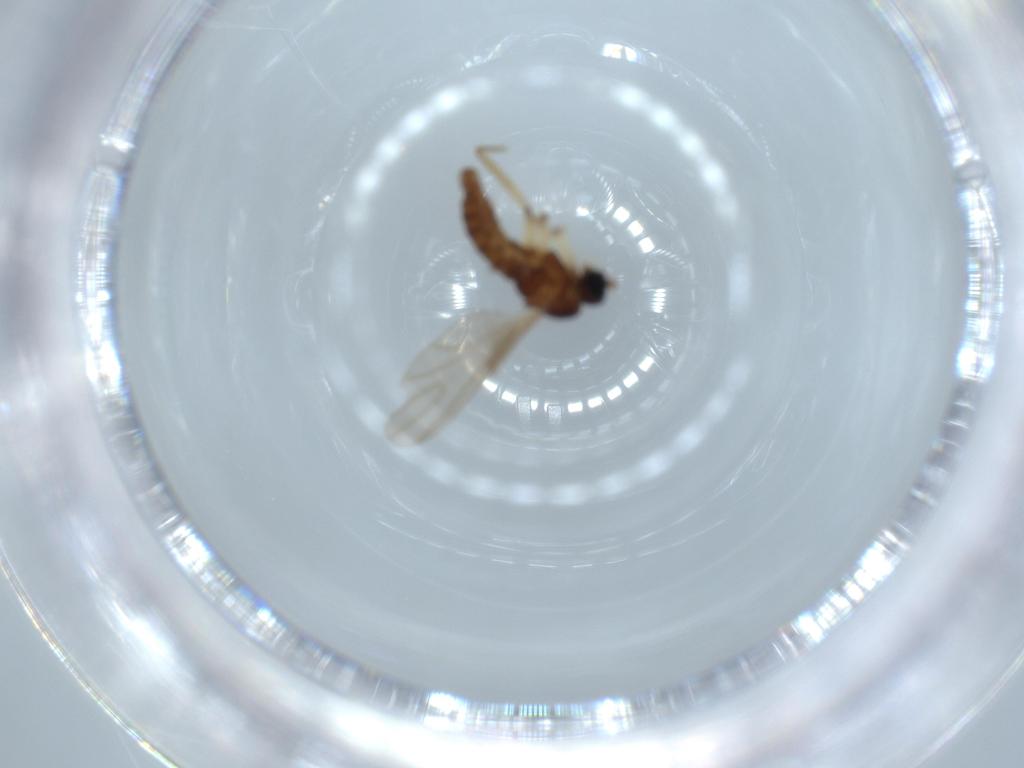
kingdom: Animalia
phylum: Arthropoda
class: Insecta
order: Diptera
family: Sciaridae
